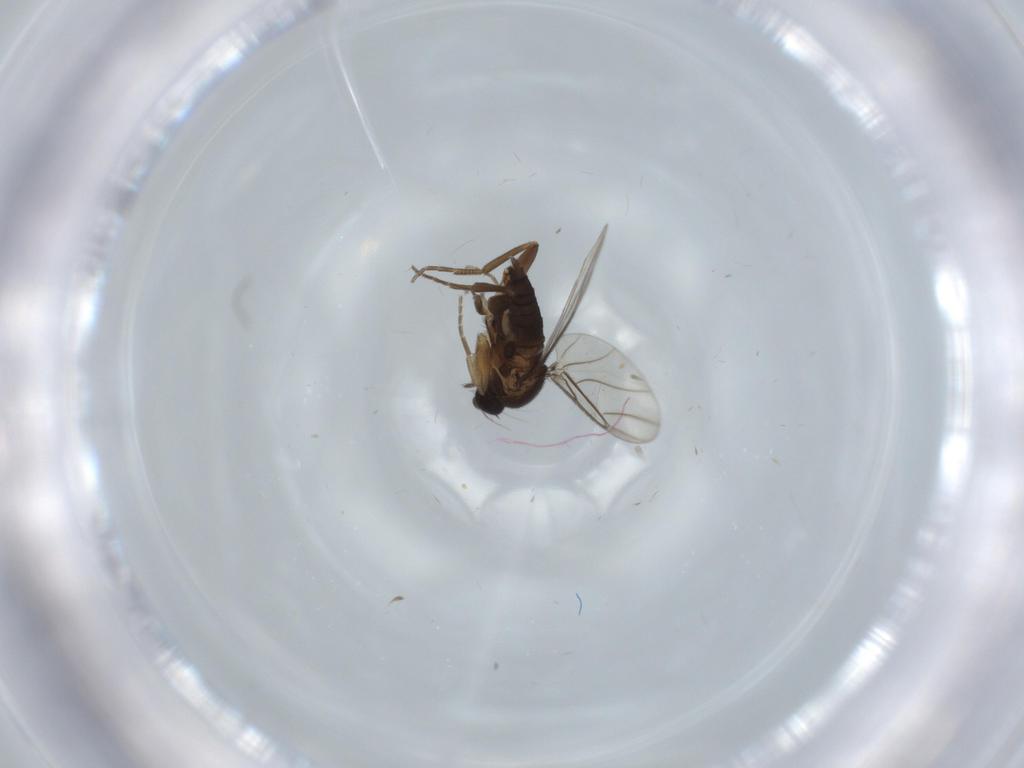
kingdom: Animalia
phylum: Arthropoda
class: Insecta
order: Diptera
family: Phoridae
